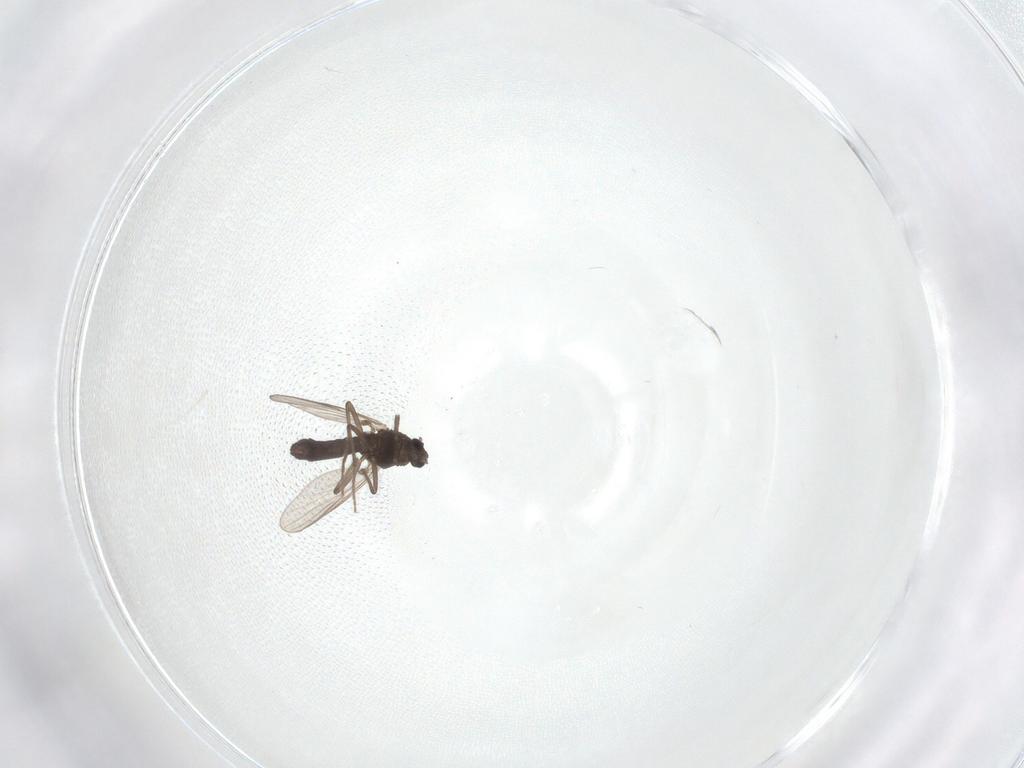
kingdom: Animalia
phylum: Arthropoda
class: Insecta
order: Diptera
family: Chironomidae
